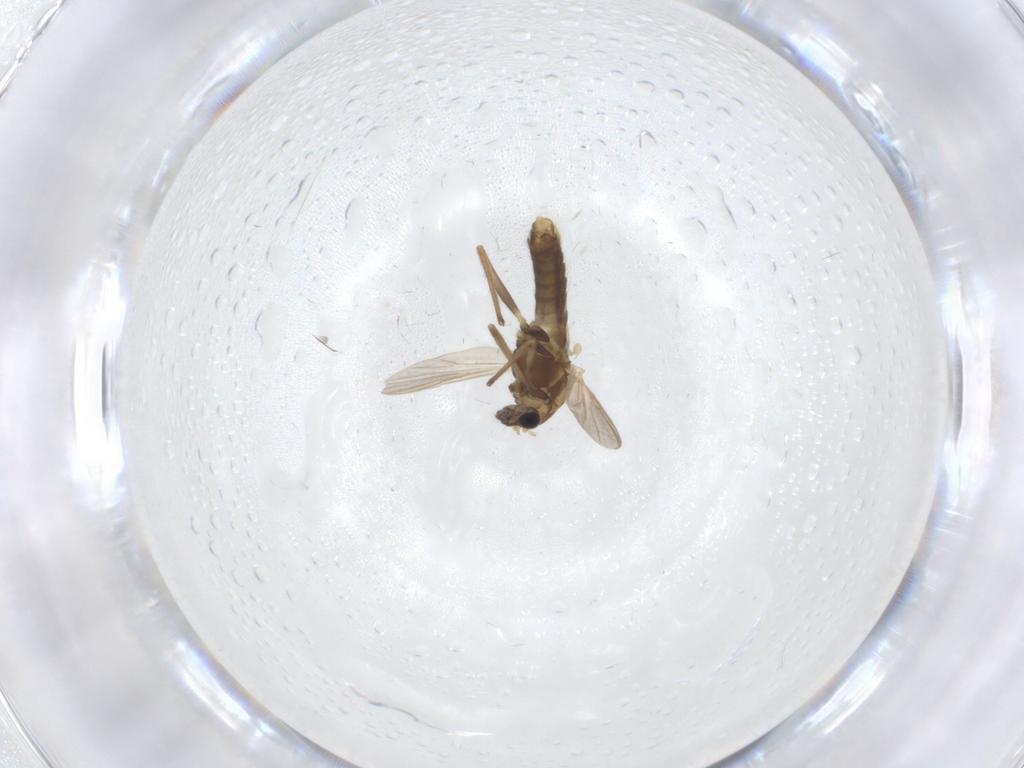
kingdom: Animalia
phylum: Arthropoda
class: Insecta
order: Diptera
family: Chironomidae
